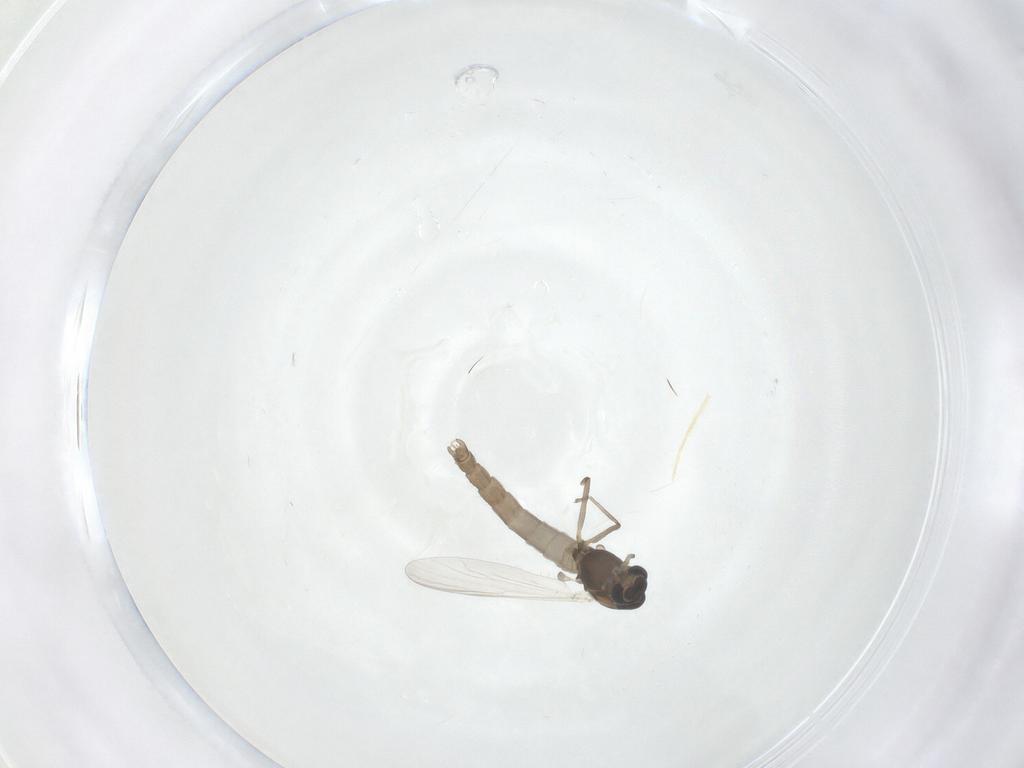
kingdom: Animalia
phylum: Arthropoda
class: Insecta
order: Diptera
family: Chironomidae
